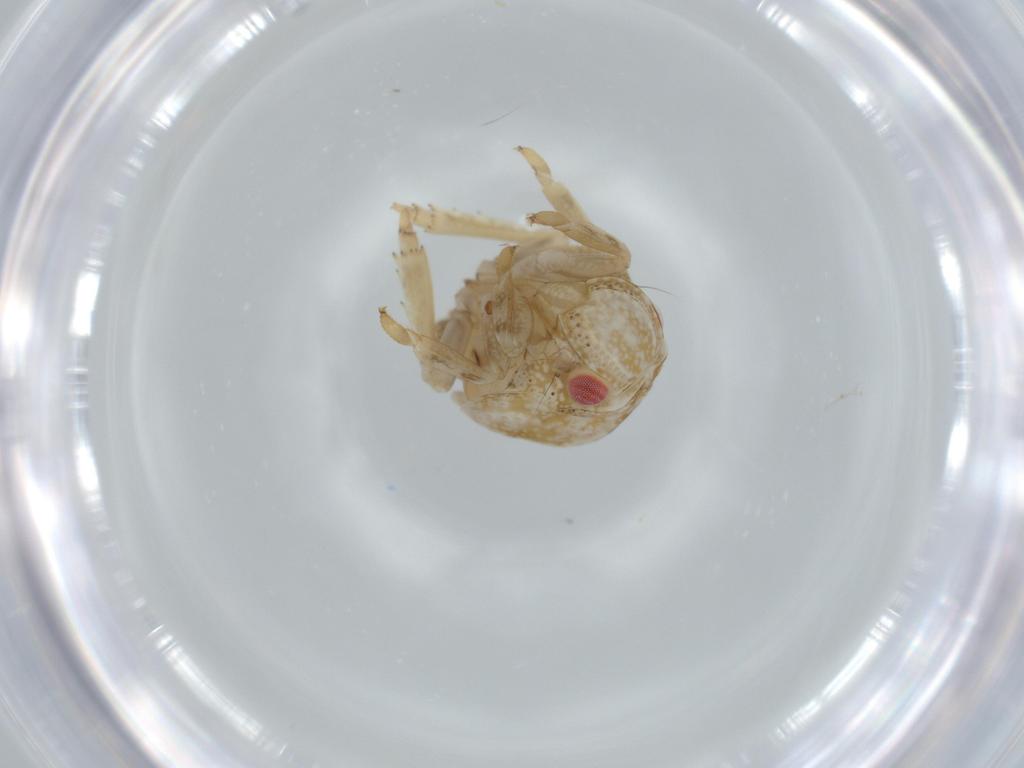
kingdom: Animalia
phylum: Arthropoda
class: Insecta
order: Hemiptera
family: Acanaloniidae
